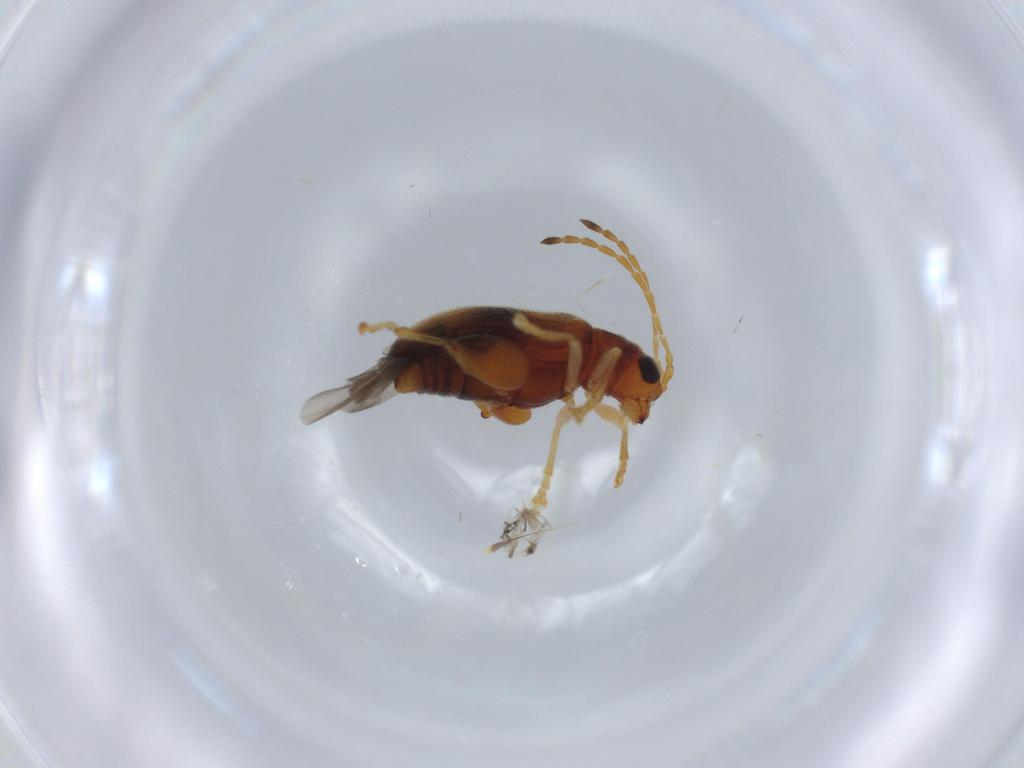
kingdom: Animalia
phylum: Arthropoda
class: Insecta
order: Coleoptera
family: Chrysomelidae
